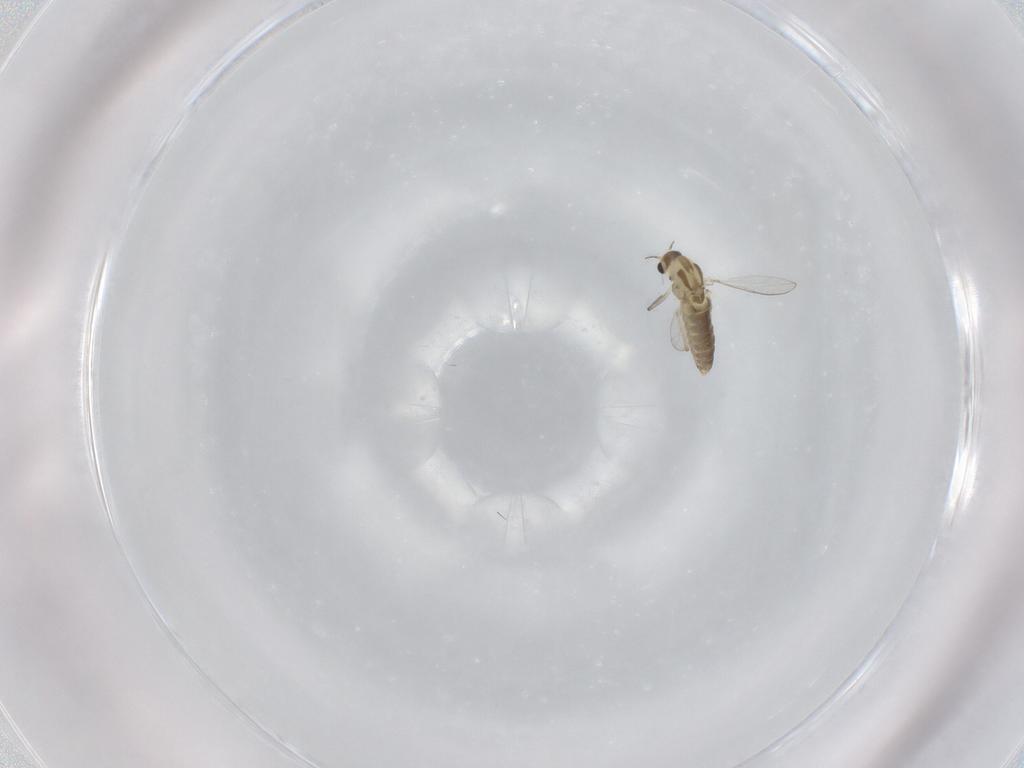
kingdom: Animalia
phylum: Arthropoda
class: Insecta
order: Diptera
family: Chironomidae
